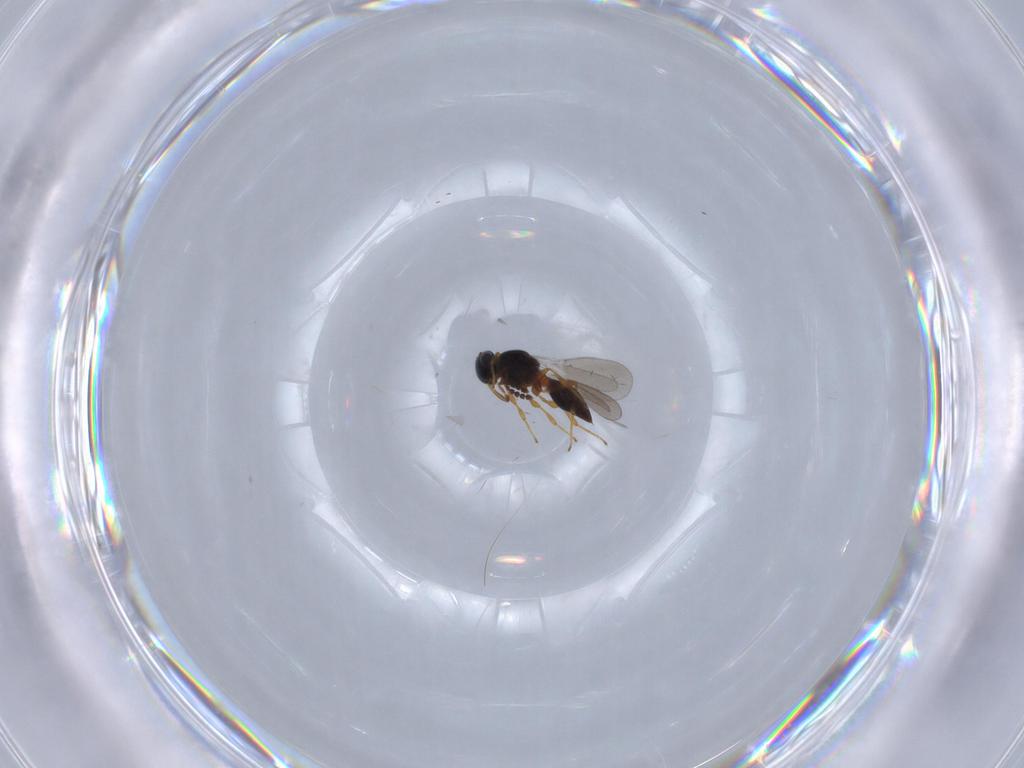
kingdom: Animalia
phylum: Arthropoda
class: Insecta
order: Hymenoptera
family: Platygastridae
